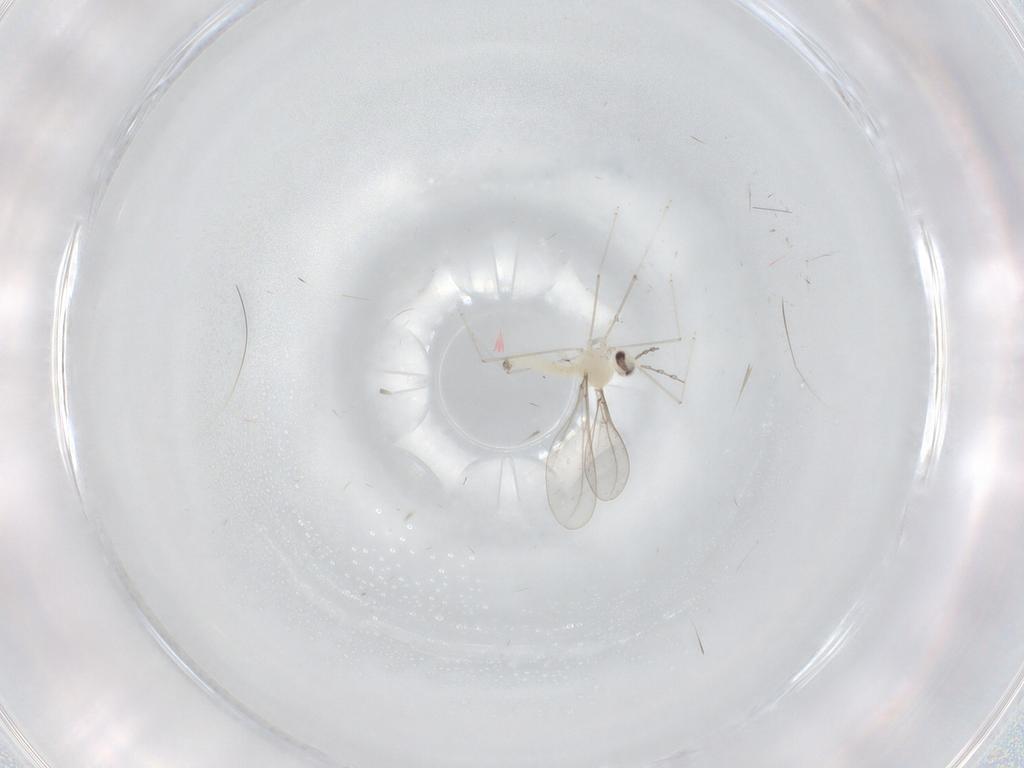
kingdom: Animalia
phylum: Arthropoda
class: Insecta
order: Diptera
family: Cecidomyiidae
